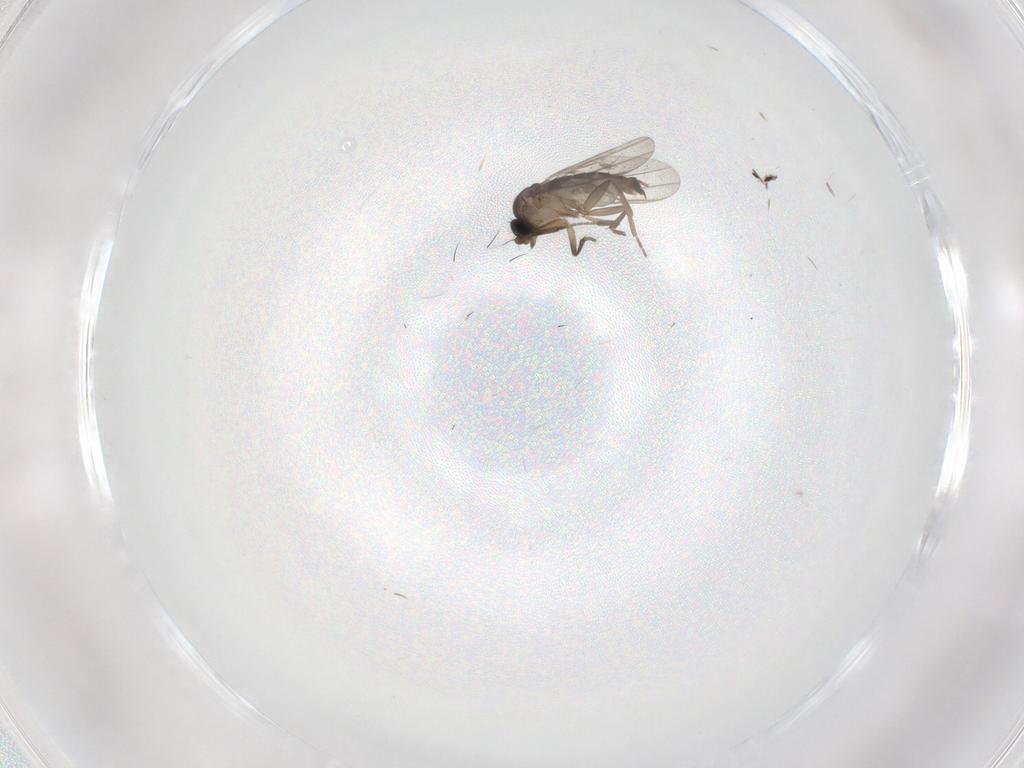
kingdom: Animalia
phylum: Arthropoda
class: Insecta
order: Diptera
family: Phoridae
